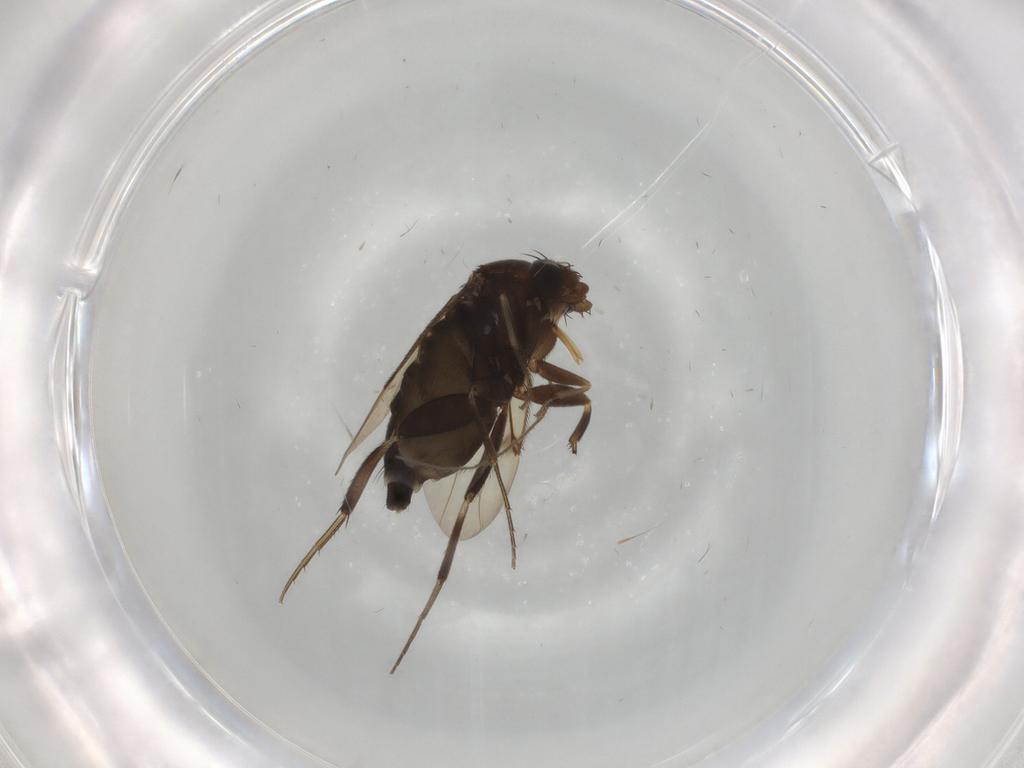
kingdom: Animalia
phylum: Arthropoda
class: Insecta
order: Diptera
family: Phoridae
